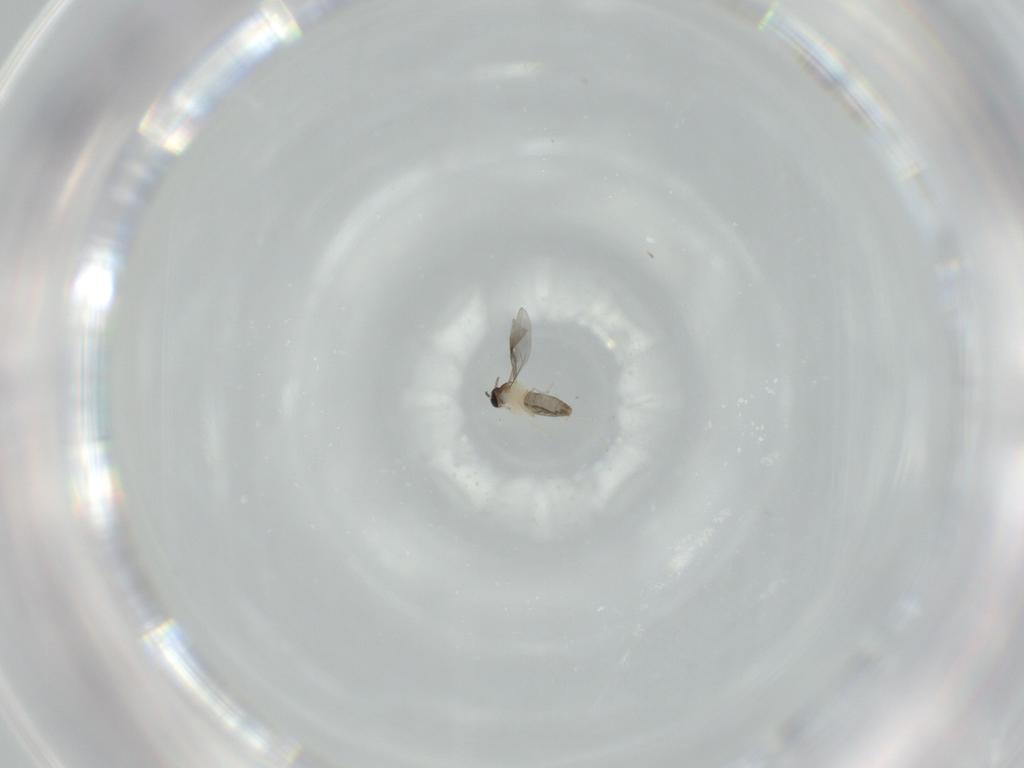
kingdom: Animalia
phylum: Arthropoda
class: Insecta
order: Diptera
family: Cecidomyiidae
